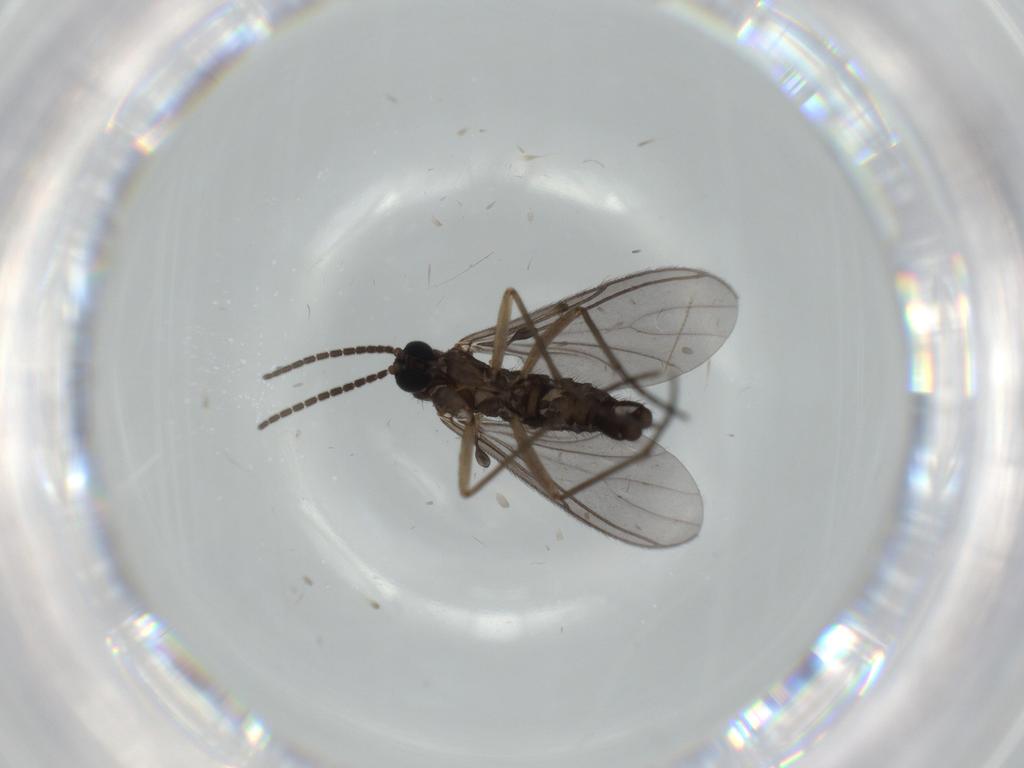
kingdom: Animalia
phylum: Arthropoda
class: Insecta
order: Diptera
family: Sciaridae
